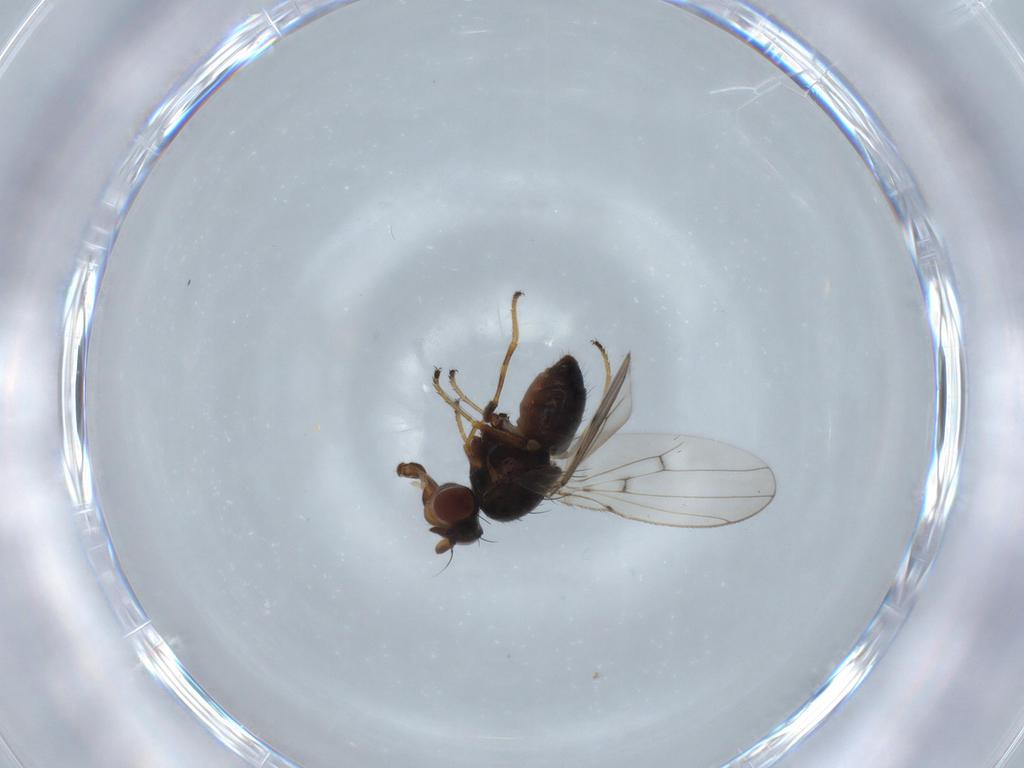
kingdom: Animalia
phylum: Arthropoda
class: Insecta
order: Diptera
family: Ephydridae
